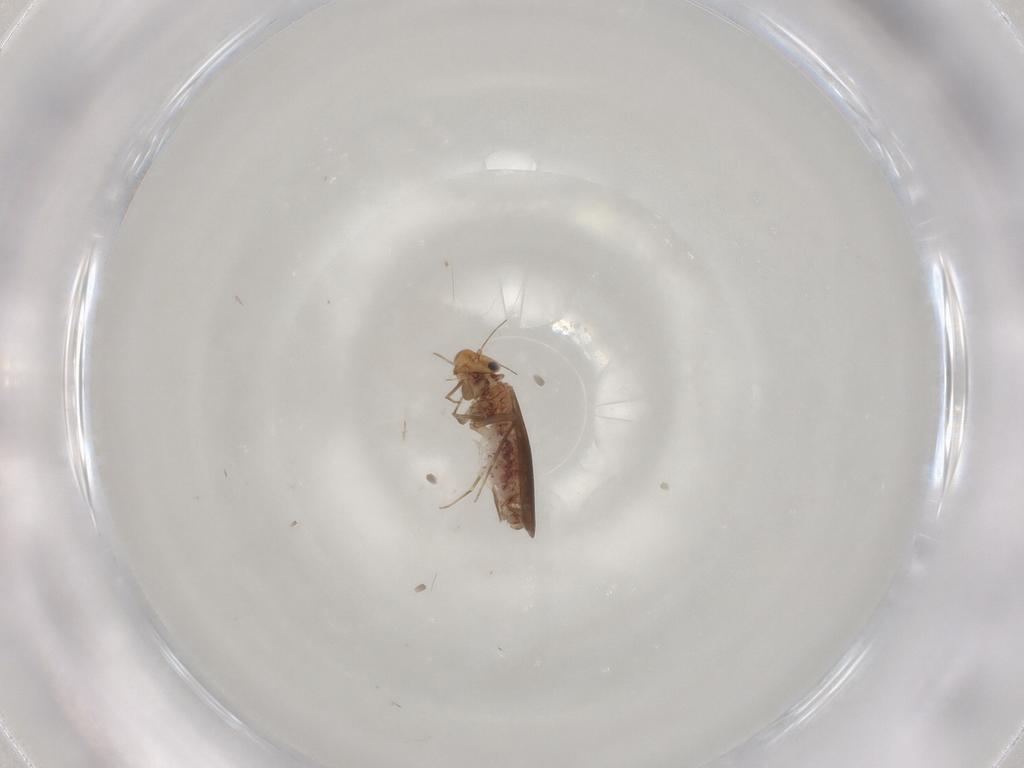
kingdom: Animalia
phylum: Arthropoda
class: Insecta
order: Psocodea
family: Lepidopsocidae
